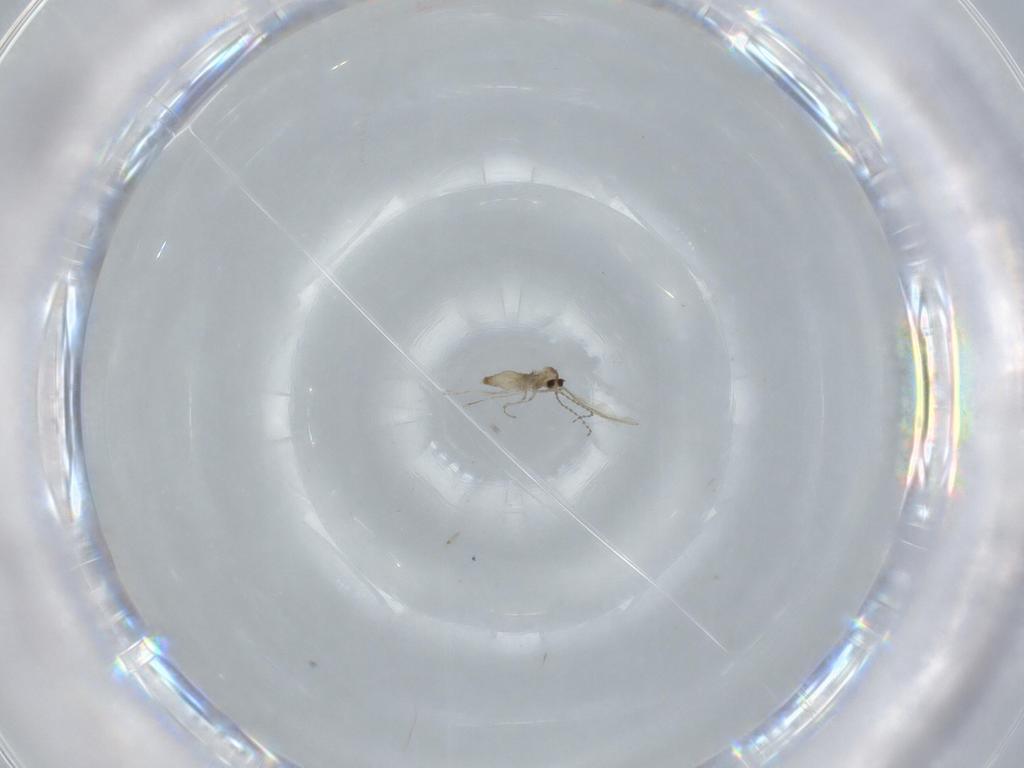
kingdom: Animalia
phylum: Arthropoda
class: Insecta
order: Diptera
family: Cecidomyiidae
